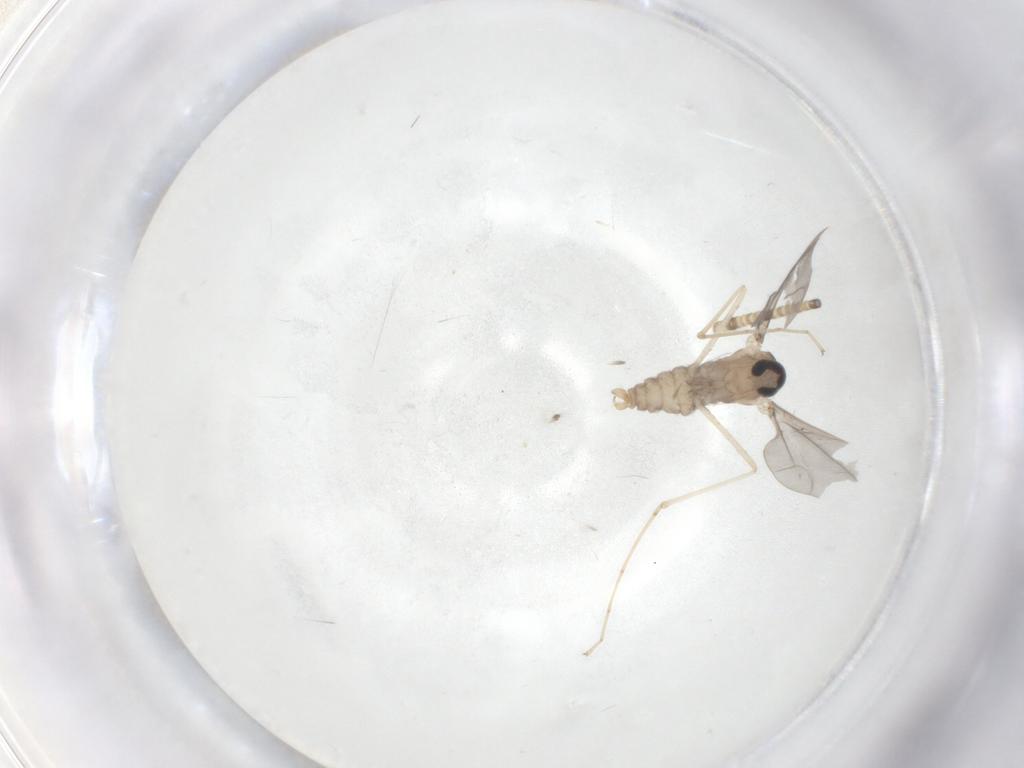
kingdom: Animalia
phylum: Arthropoda
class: Insecta
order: Diptera
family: Cecidomyiidae
